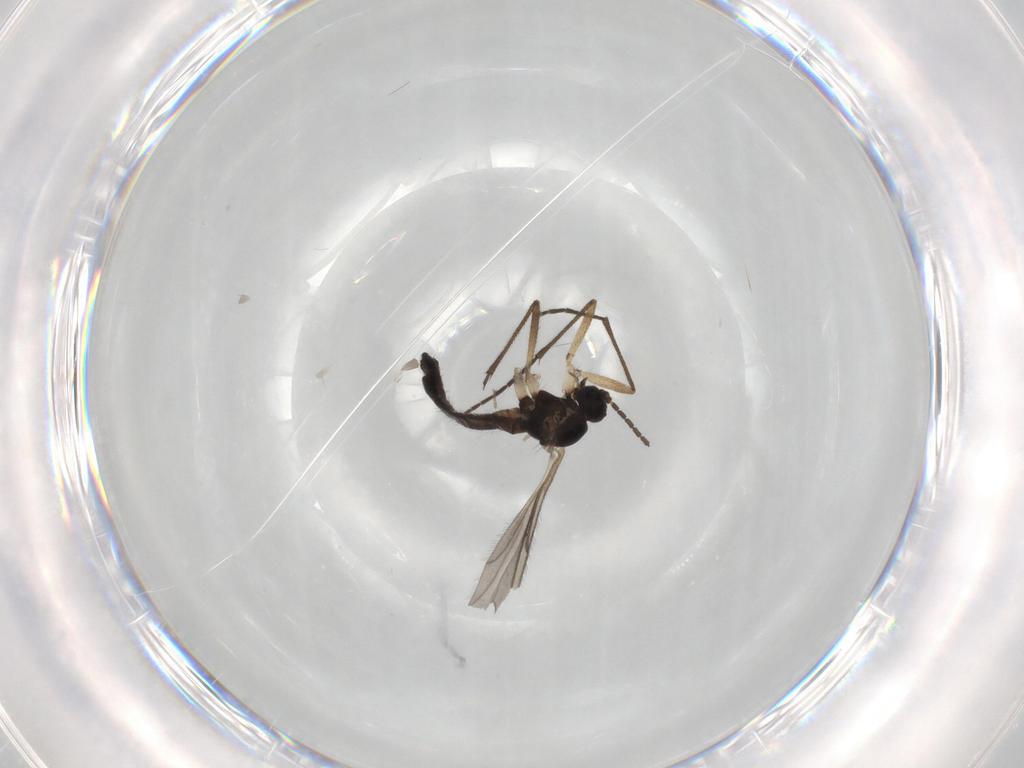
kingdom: Animalia
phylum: Arthropoda
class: Insecta
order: Diptera
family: Sciaridae
